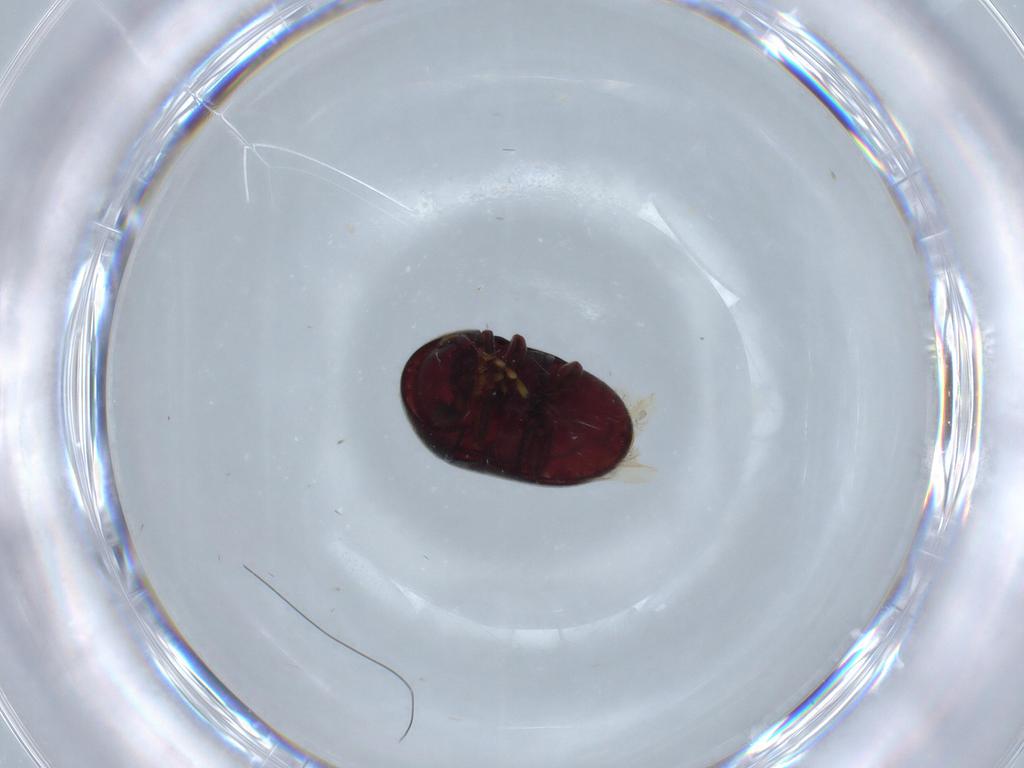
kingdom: Animalia
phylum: Arthropoda
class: Insecta
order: Coleoptera
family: Ptinidae
